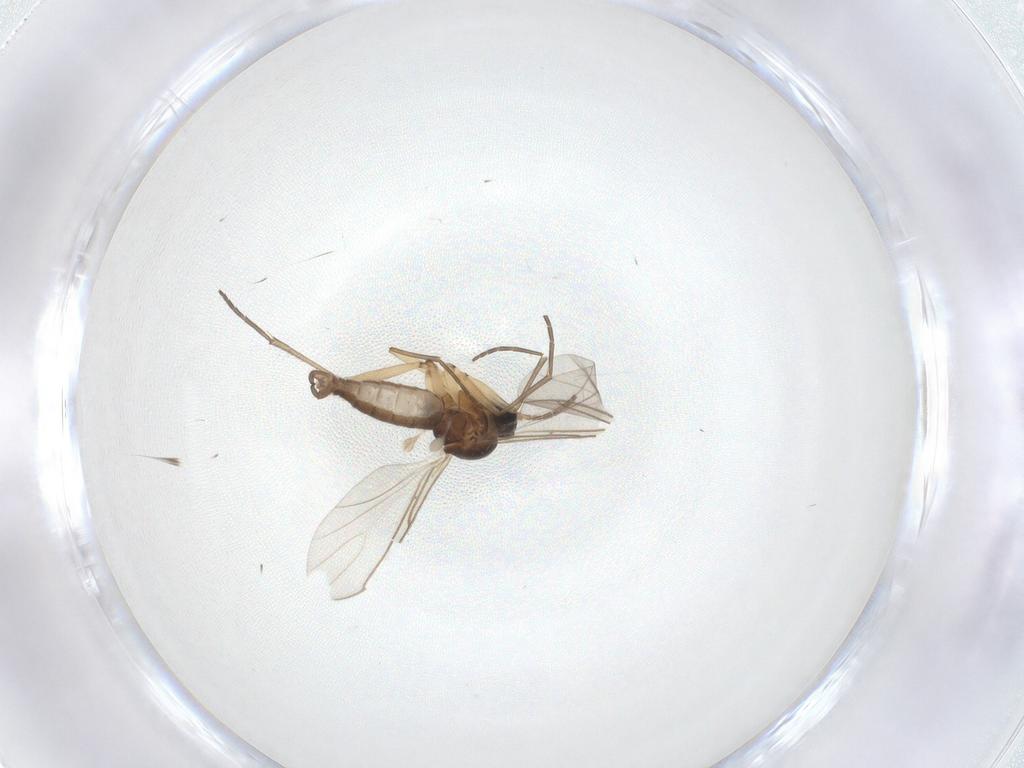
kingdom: Animalia
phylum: Arthropoda
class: Insecta
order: Diptera
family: Sciaridae
